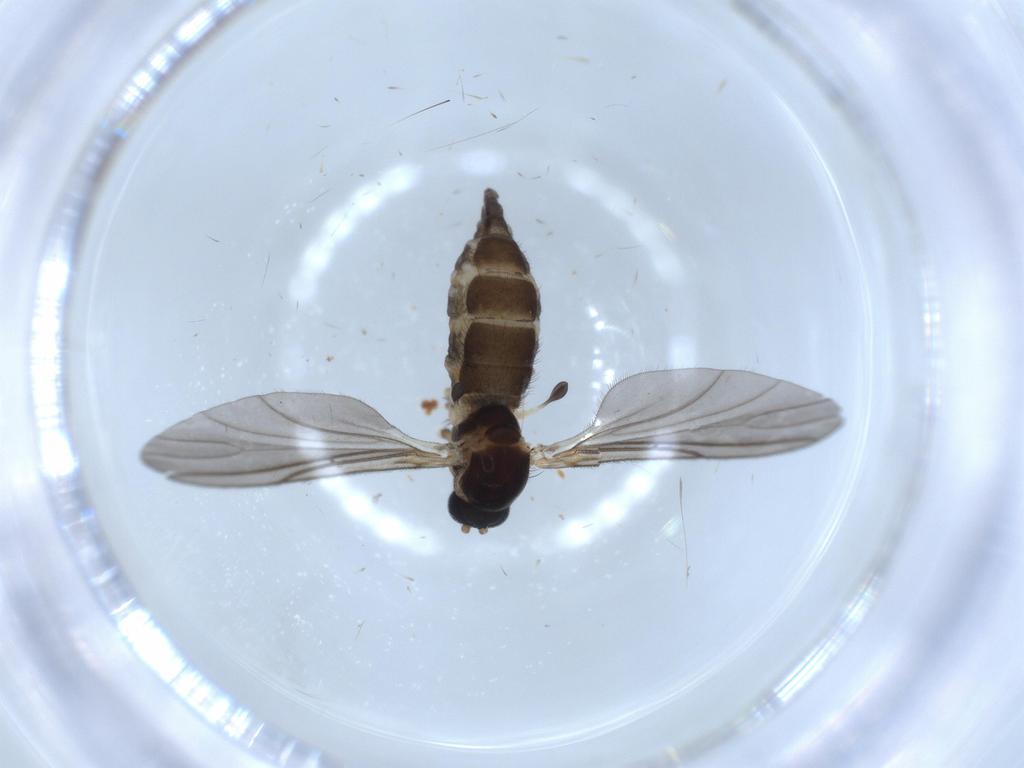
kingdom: Animalia
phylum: Arthropoda
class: Insecta
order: Diptera
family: Sciaridae
